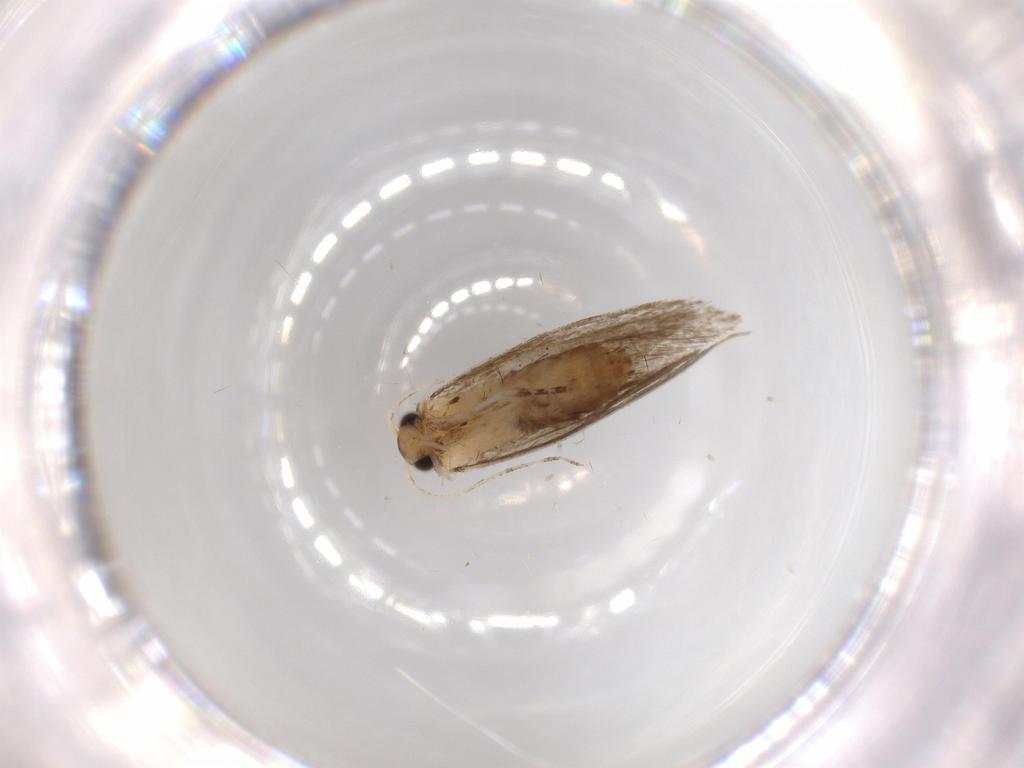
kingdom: Animalia
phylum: Arthropoda
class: Insecta
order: Lepidoptera
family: Tineidae
